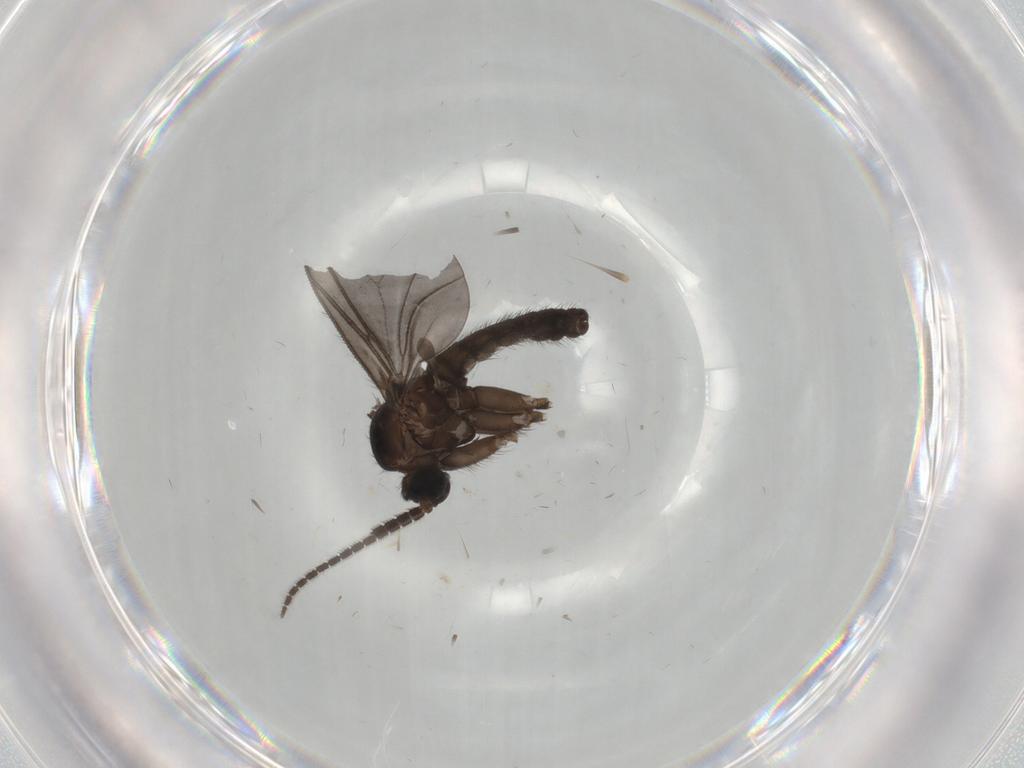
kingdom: Animalia
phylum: Arthropoda
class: Insecta
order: Diptera
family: Sciaridae
